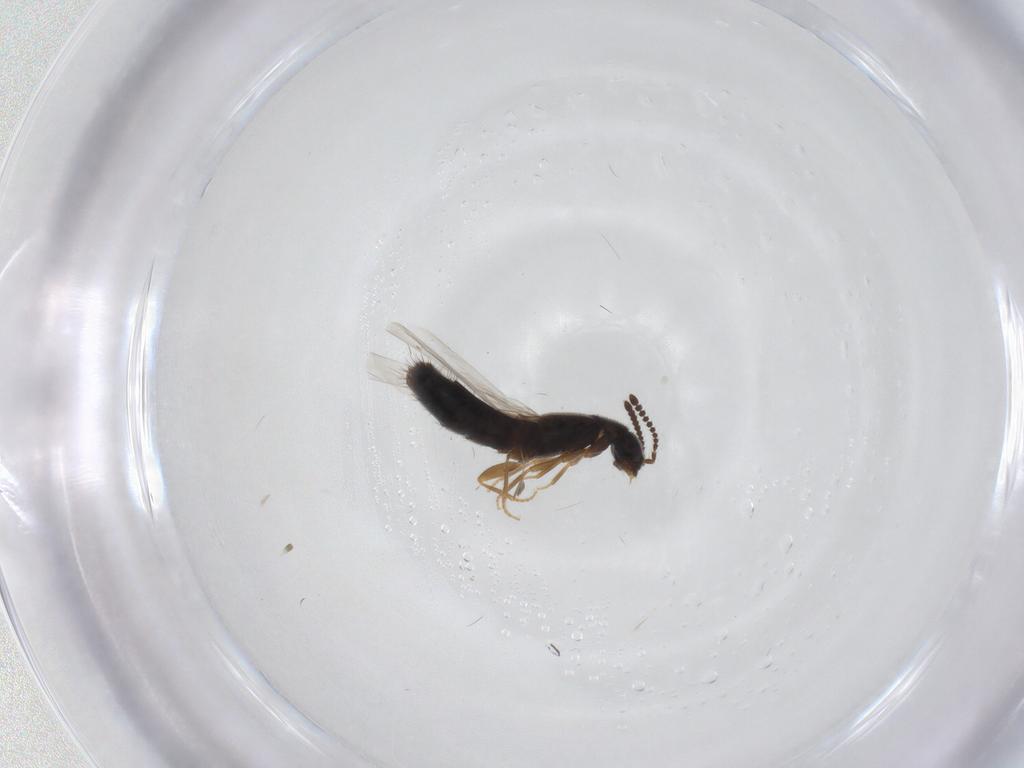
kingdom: Animalia
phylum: Arthropoda
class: Insecta
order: Coleoptera
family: Staphylinidae
